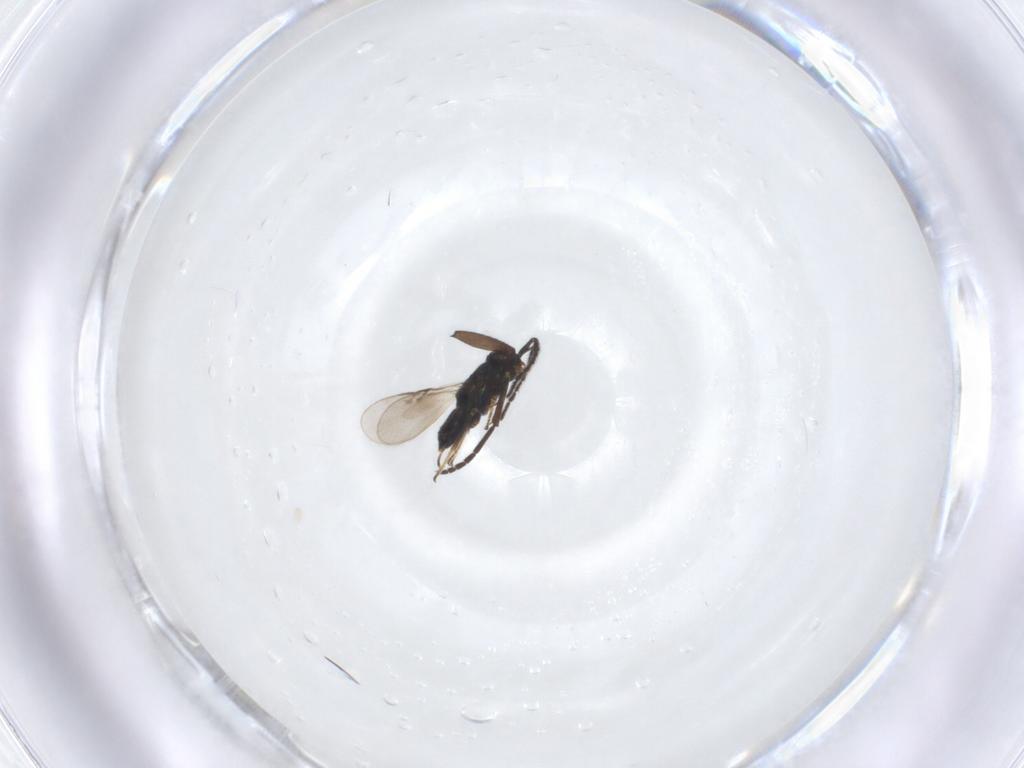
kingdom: Animalia
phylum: Arthropoda
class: Insecta
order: Hymenoptera
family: Encyrtidae
